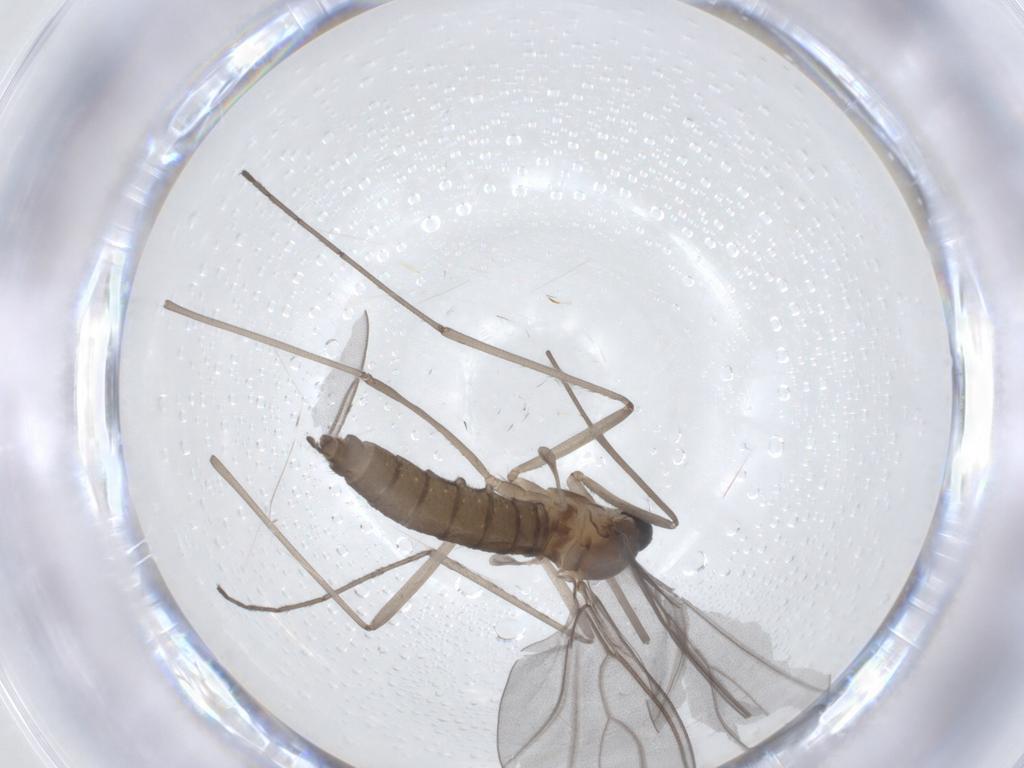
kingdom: Animalia
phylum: Arthropoda
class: Insecta
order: Diptera
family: Cecidomyiidae
